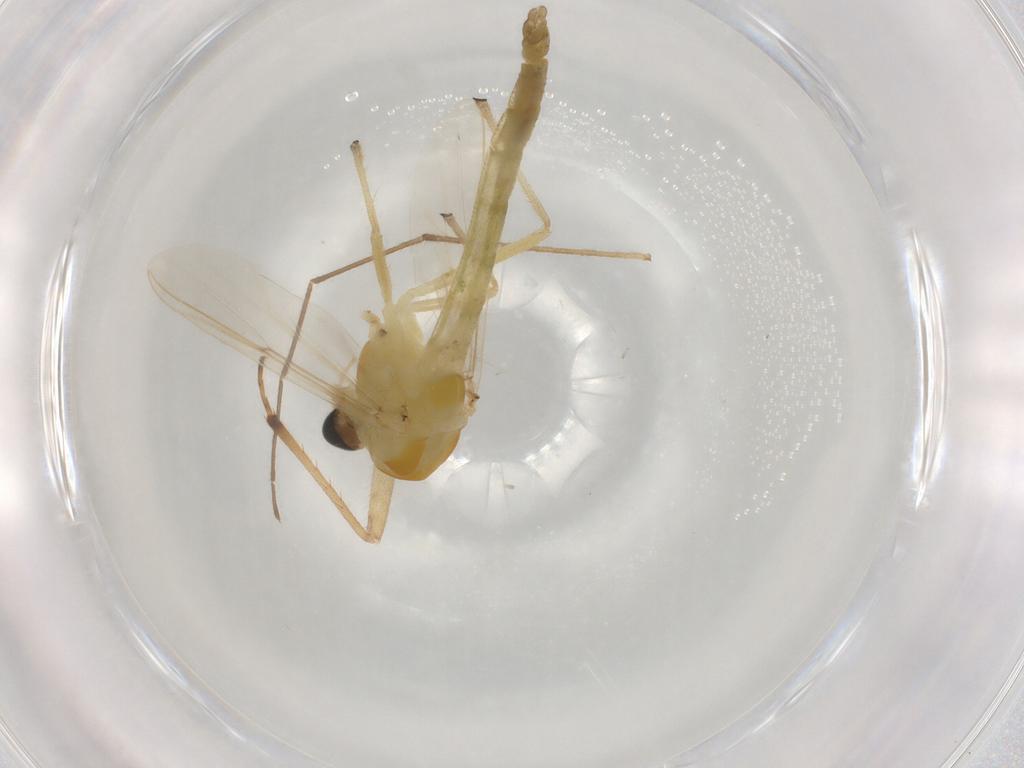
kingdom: Animalia
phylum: Arthropoda
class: Insecta
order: Diptera
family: Chironomidae
